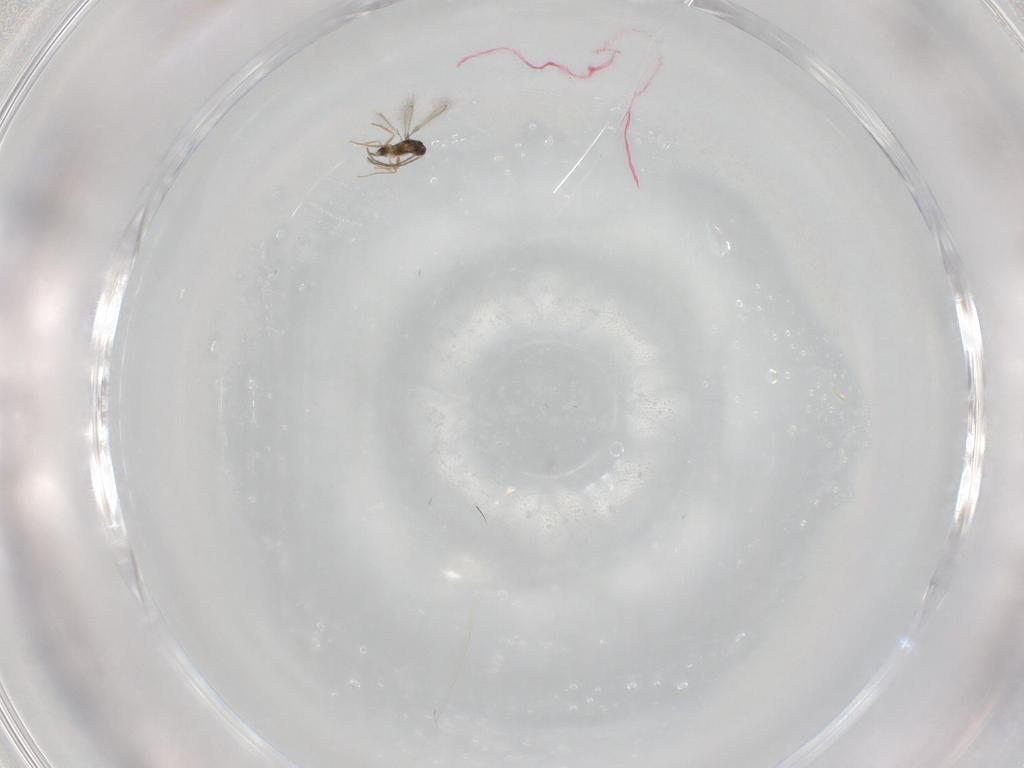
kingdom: Animalia
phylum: Arthropoda
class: Insecta
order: Hymenoptera
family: Mymaridae
